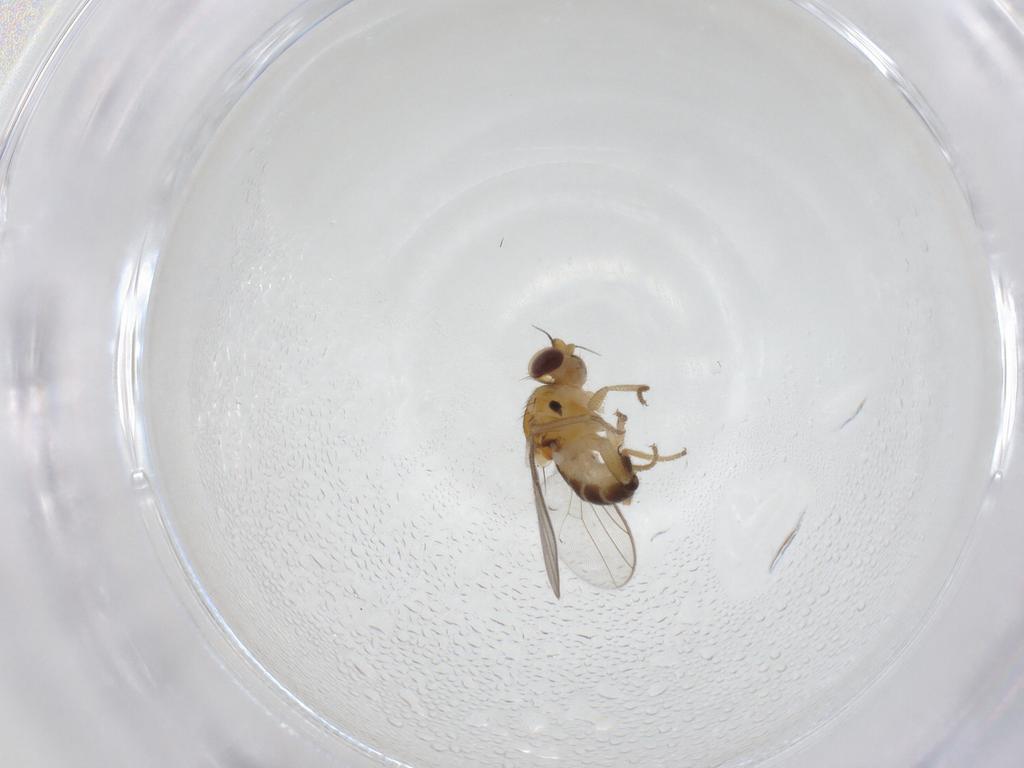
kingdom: Animalia
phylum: Arthropoda
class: Insecta
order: Diptera
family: Chloropidae
